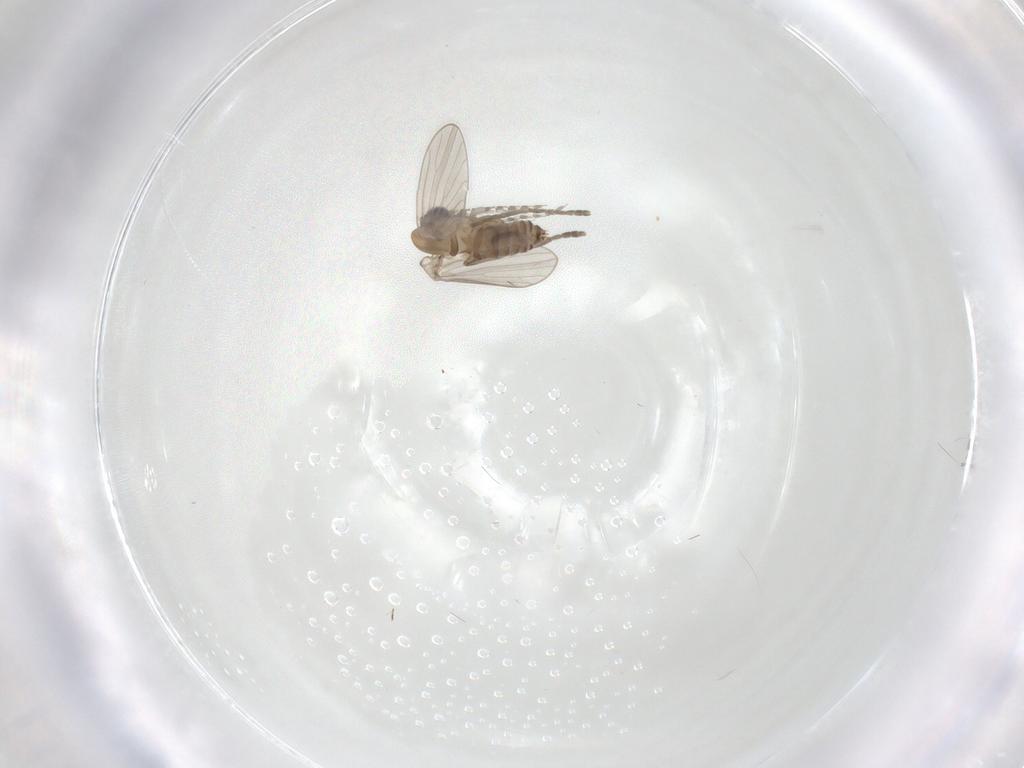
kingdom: Animalia
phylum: Arthropoda
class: Insecta
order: Diptera
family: Psychodidae
